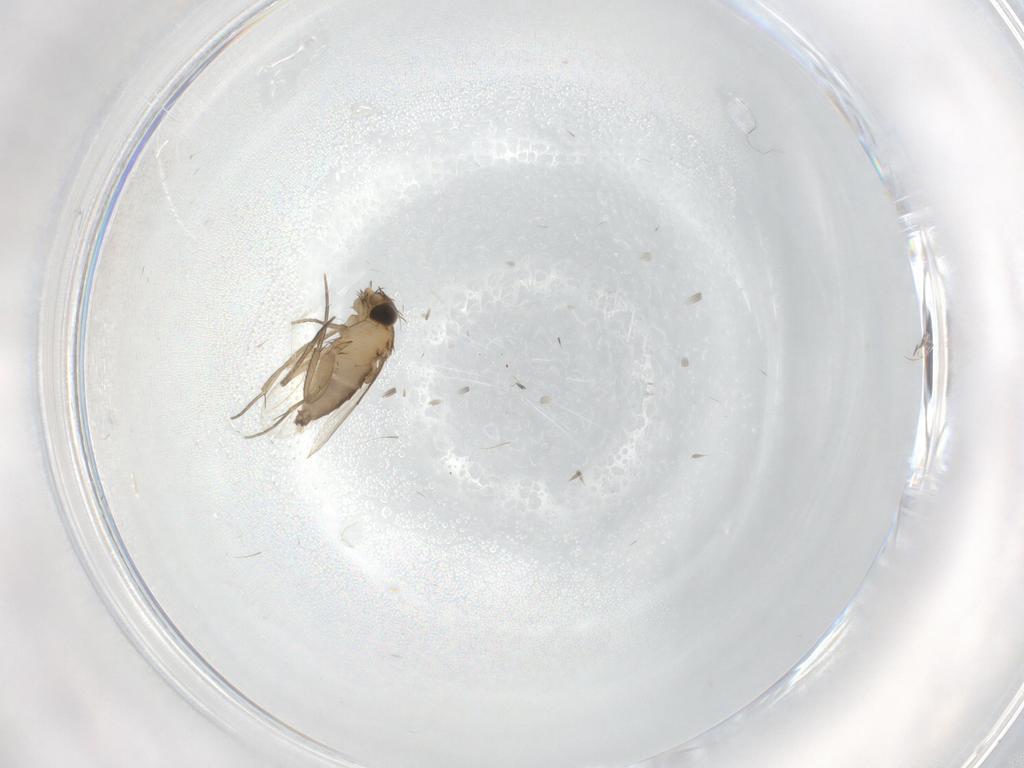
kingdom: Animalia
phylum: Arthropoda
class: Insecta
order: Diptera
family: Phoridae
